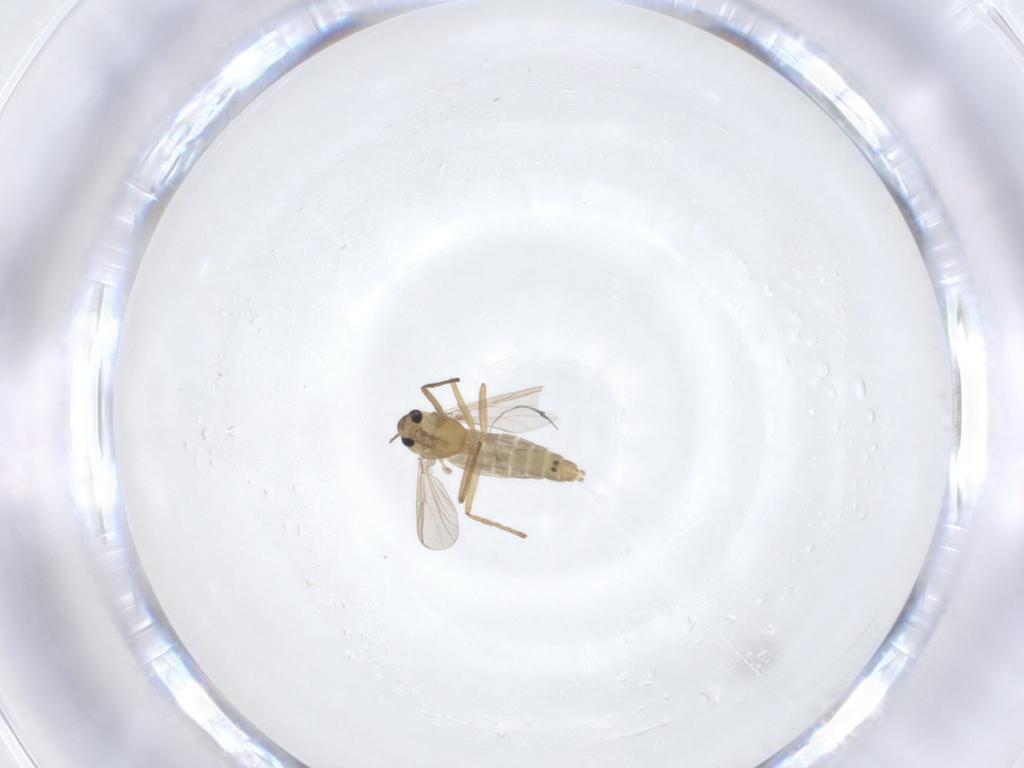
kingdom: Animalia
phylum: Arthropoda
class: Insecta
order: Diptera
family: Chironomidae
